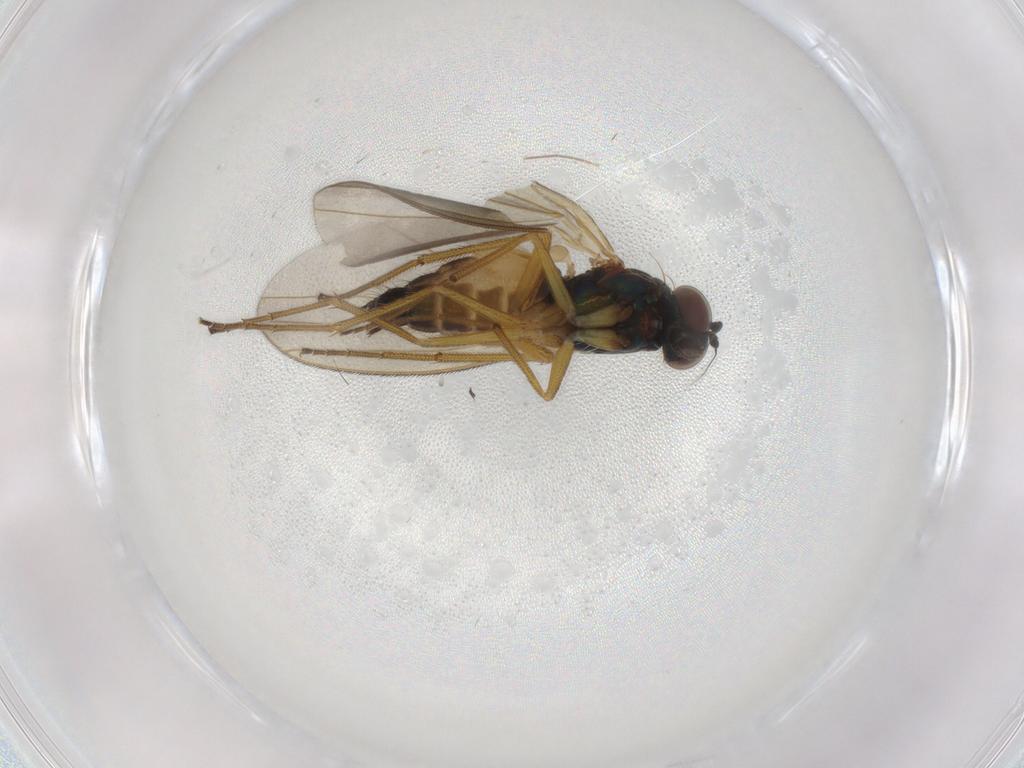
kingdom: Animalia
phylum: Arthropoda
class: Insecta
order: Diptera
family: Dolichopodidae
